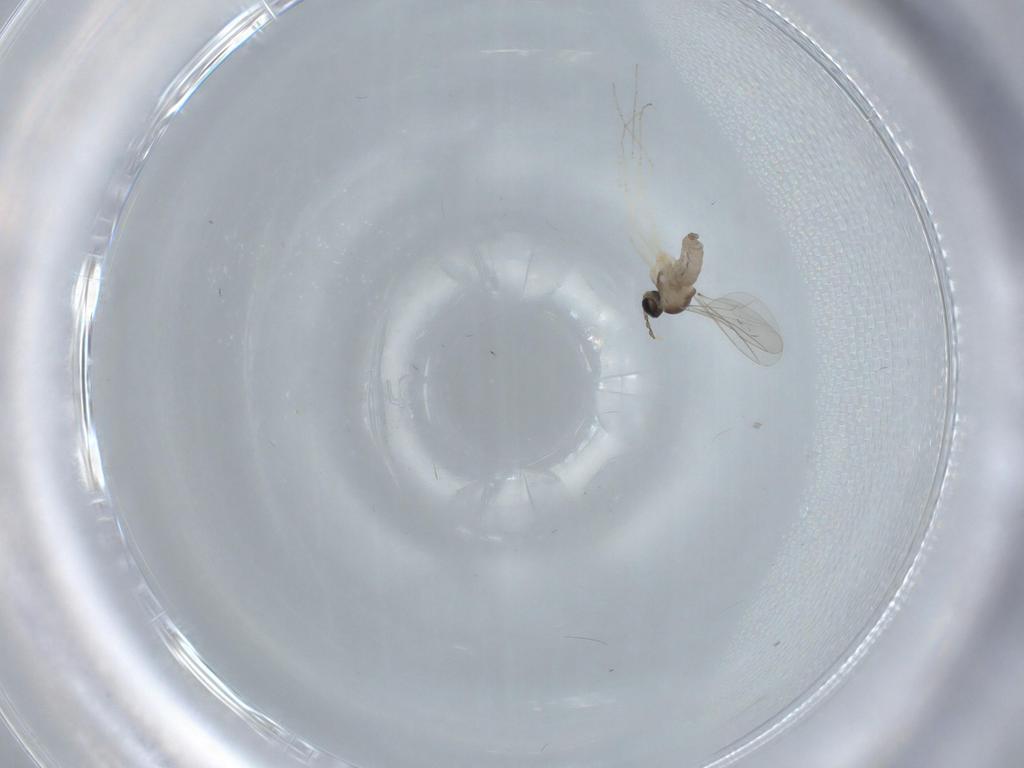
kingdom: Animalia
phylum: Arthropoda
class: Insecta
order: Diptera
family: Cecidomyiidae
